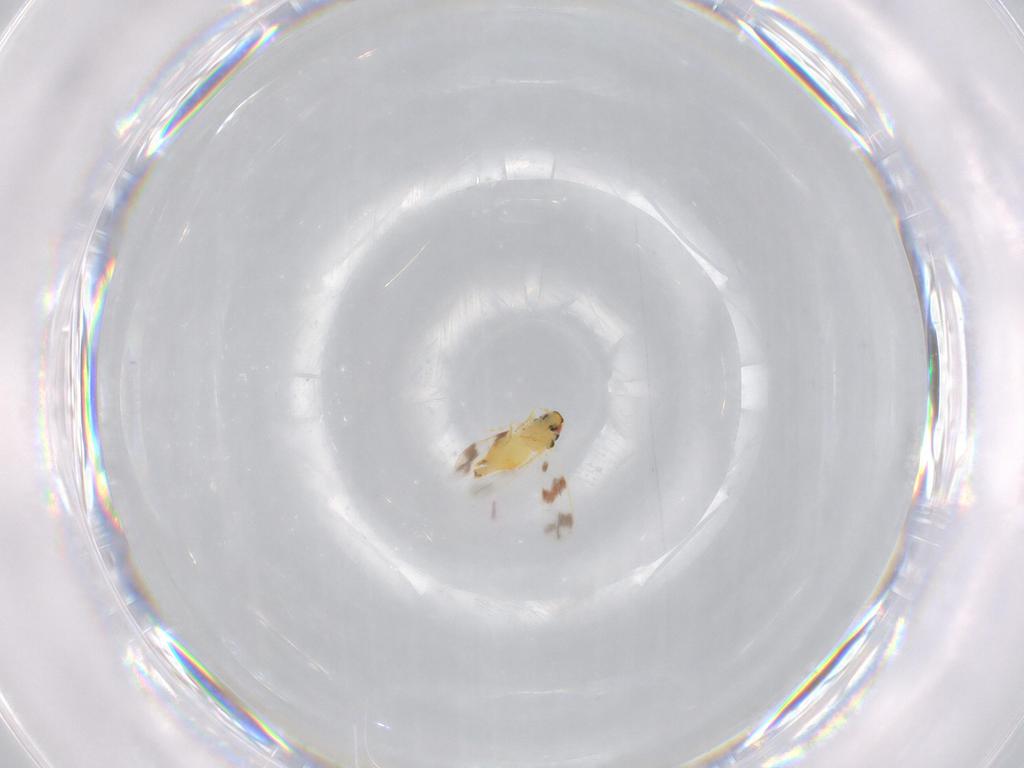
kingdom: Animalia
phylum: Arthropoda
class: Insecta
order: Hemiptera
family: Aleyrodidae
